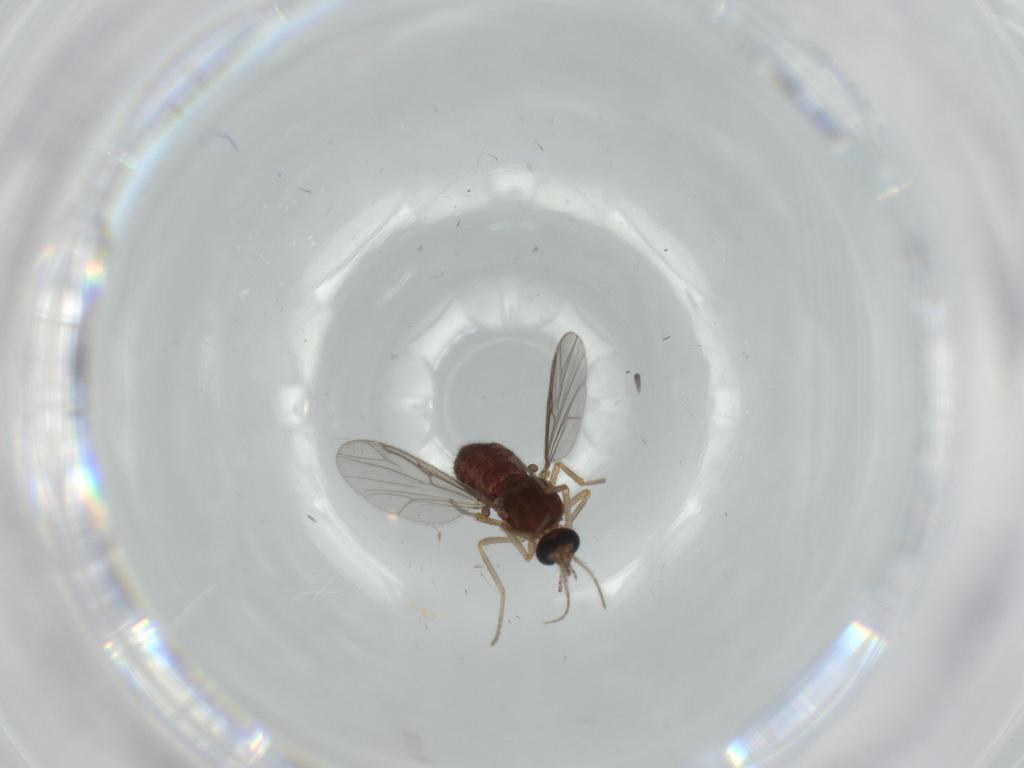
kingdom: Animalia
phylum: Arthropoda
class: Insecta
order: Diptera
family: Ceratopogonidae
